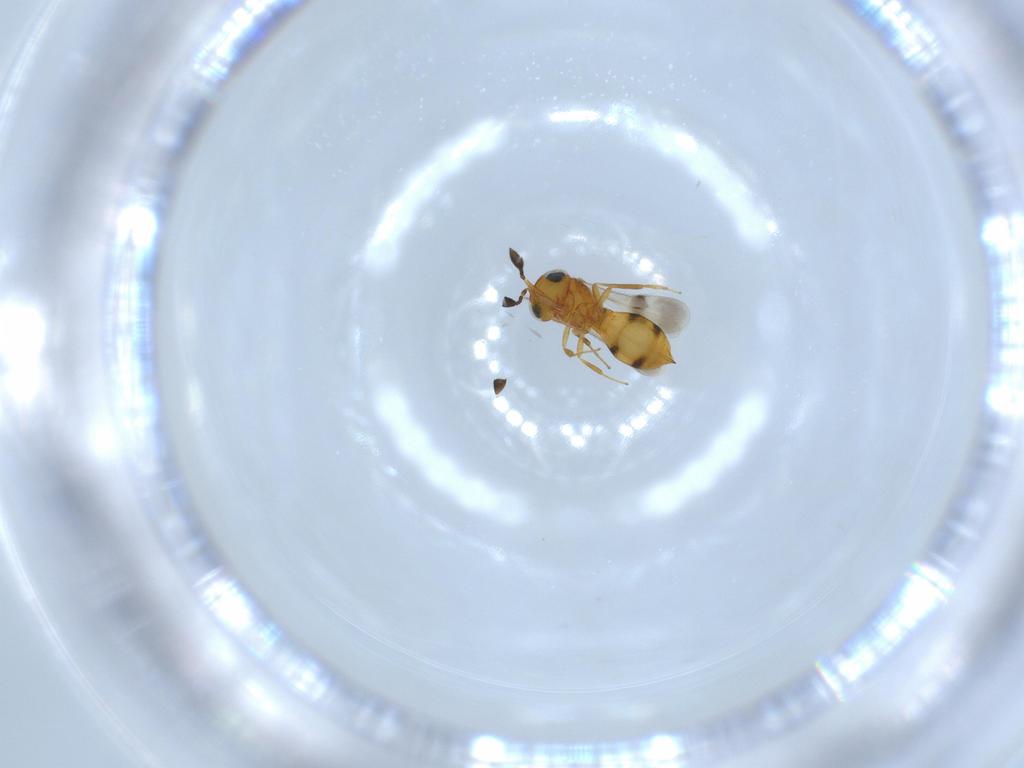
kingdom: Animalia
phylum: Arthropoda
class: Insecta
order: Hymenoptera
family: Scelionidae
